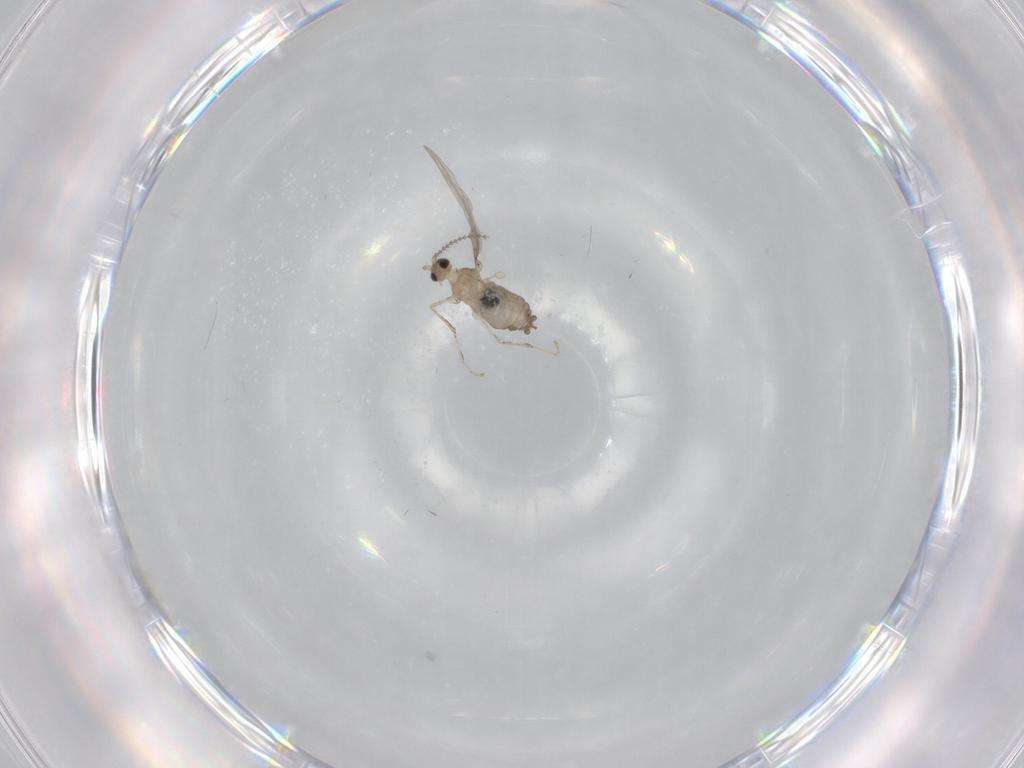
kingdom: Animalia
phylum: Arthropoda
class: Insecta
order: Diptera
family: Cecidomyiidae
